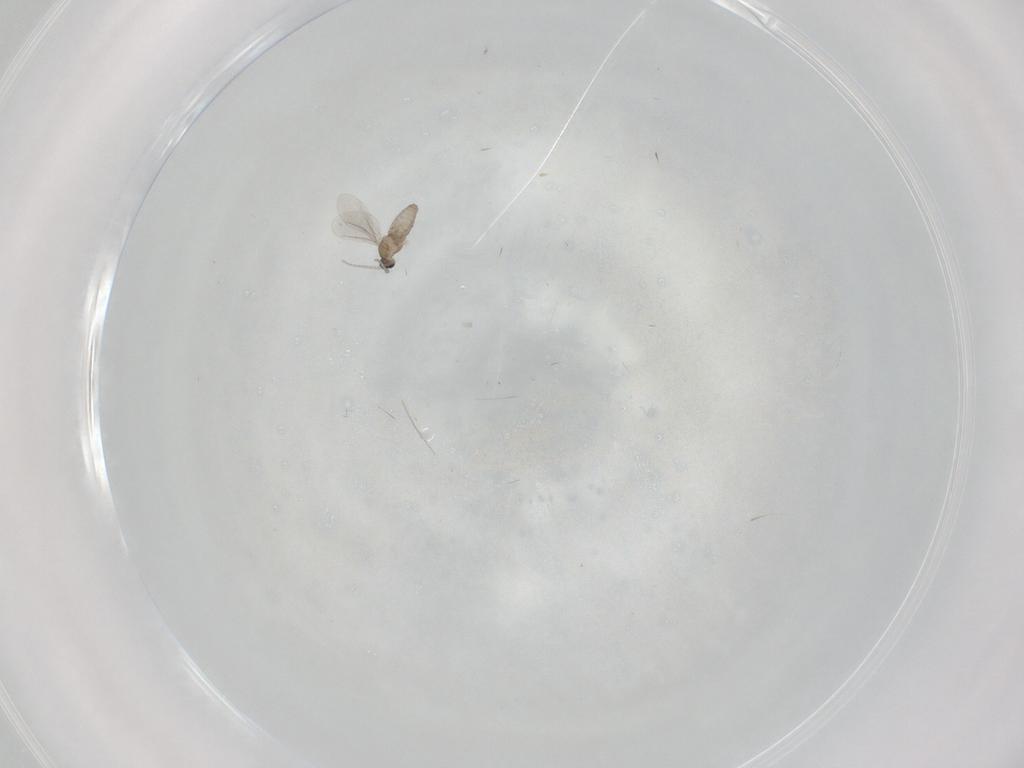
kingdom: Animalia
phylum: Arthropoda
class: Insecta
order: Diptera
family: Cecidomyiidae
